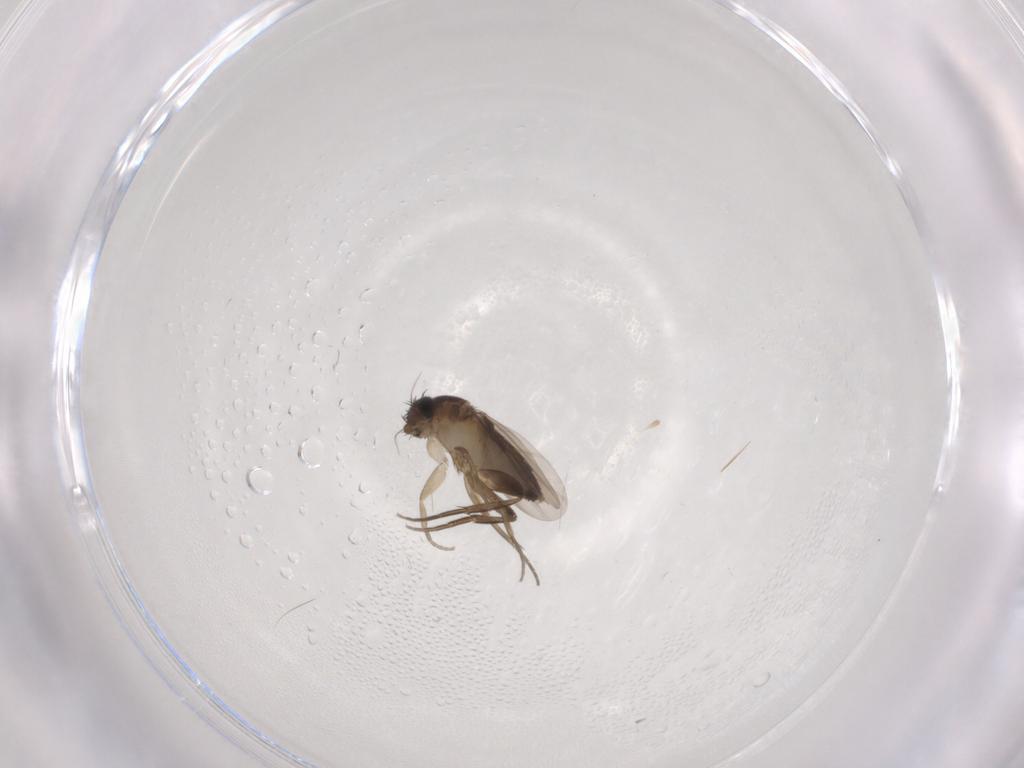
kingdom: Animalia
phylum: Arthropoda
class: Insecta
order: Diptera
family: Phoridae
